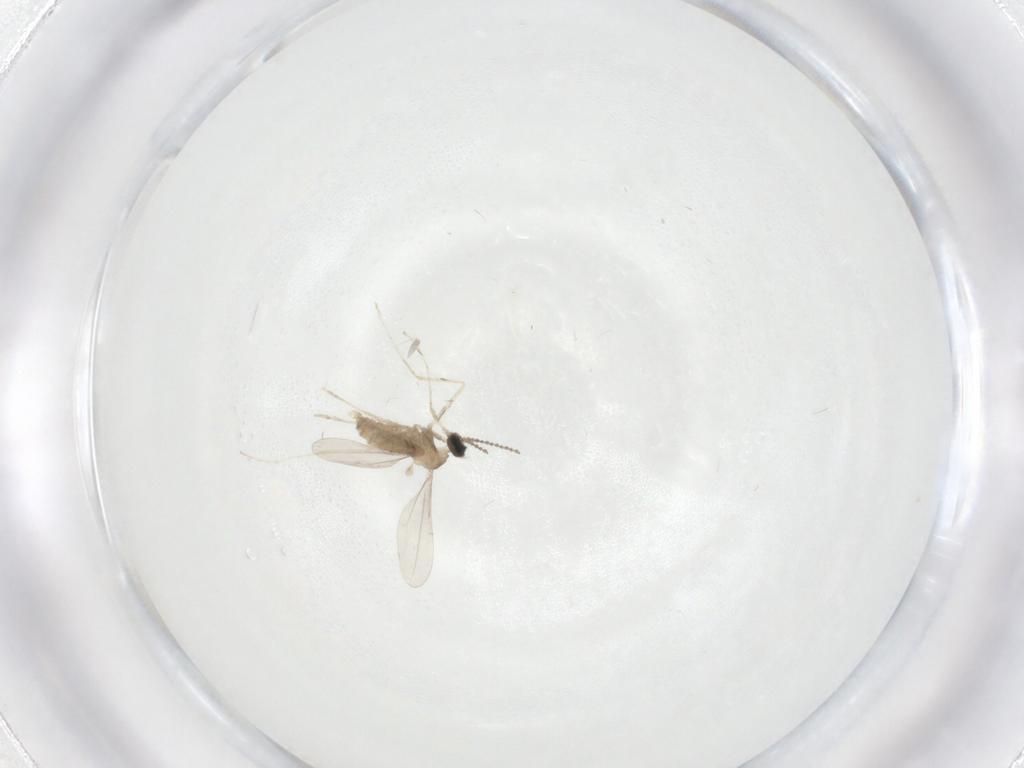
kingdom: Animalia
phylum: Arthropoda
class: Insecta
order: Diptera
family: Cecidomyiidae
